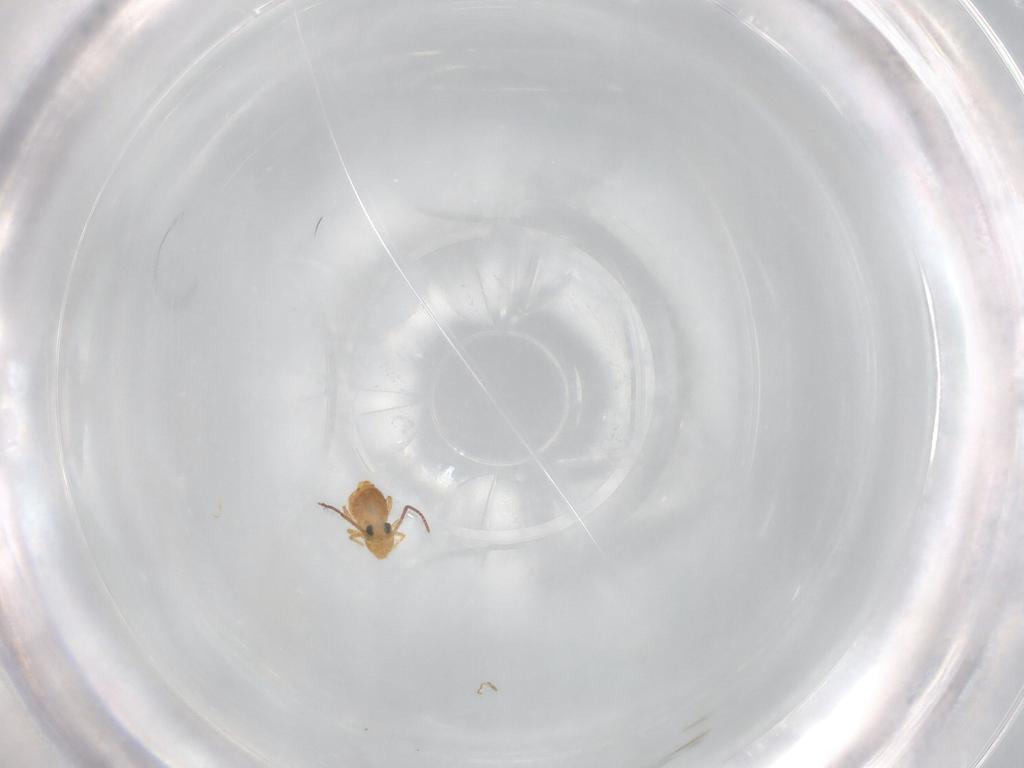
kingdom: Animalia
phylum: Arthropoda
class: Collembola
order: Symphypleona
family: Bourletiellidae
